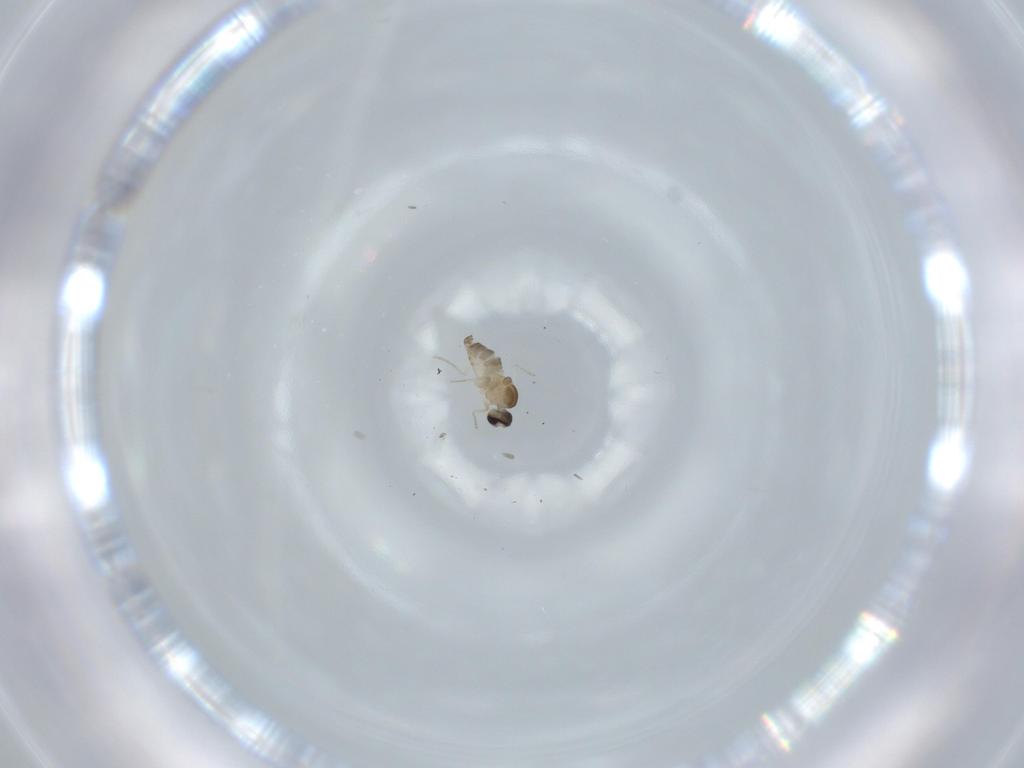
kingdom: Animalia
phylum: Arthropoda
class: Insecta
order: Diptera
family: Cecidomyiidae
